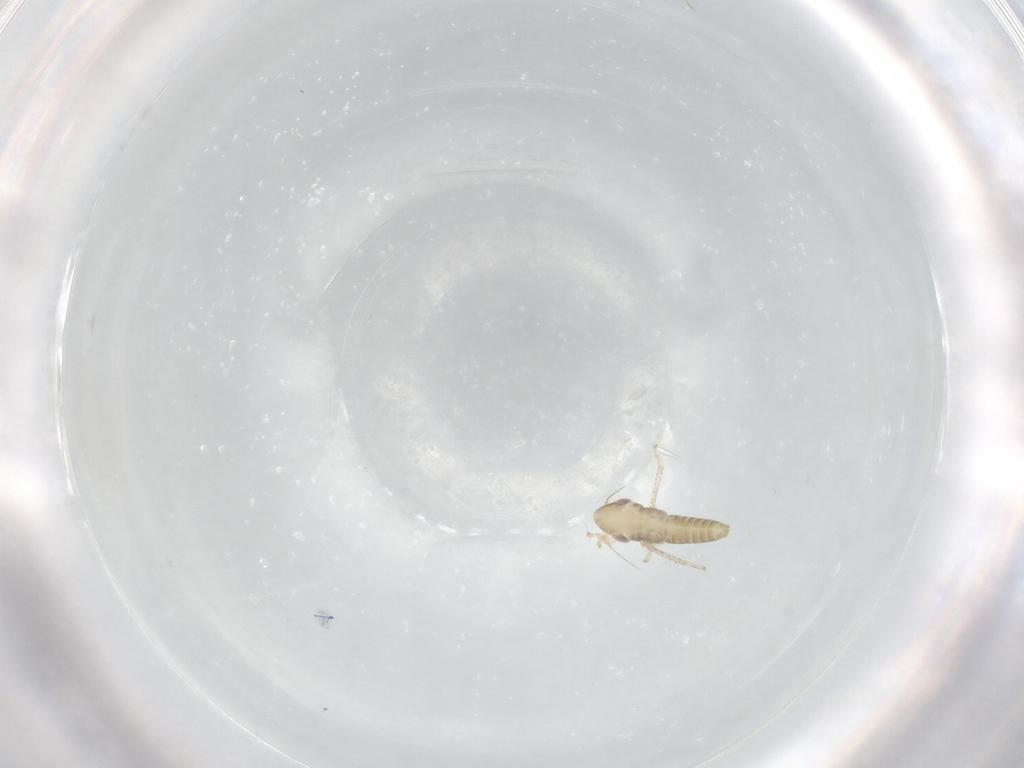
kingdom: Animalia
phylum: Arthropoda
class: Insecta
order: Hemiptera
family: Cicadellidae
